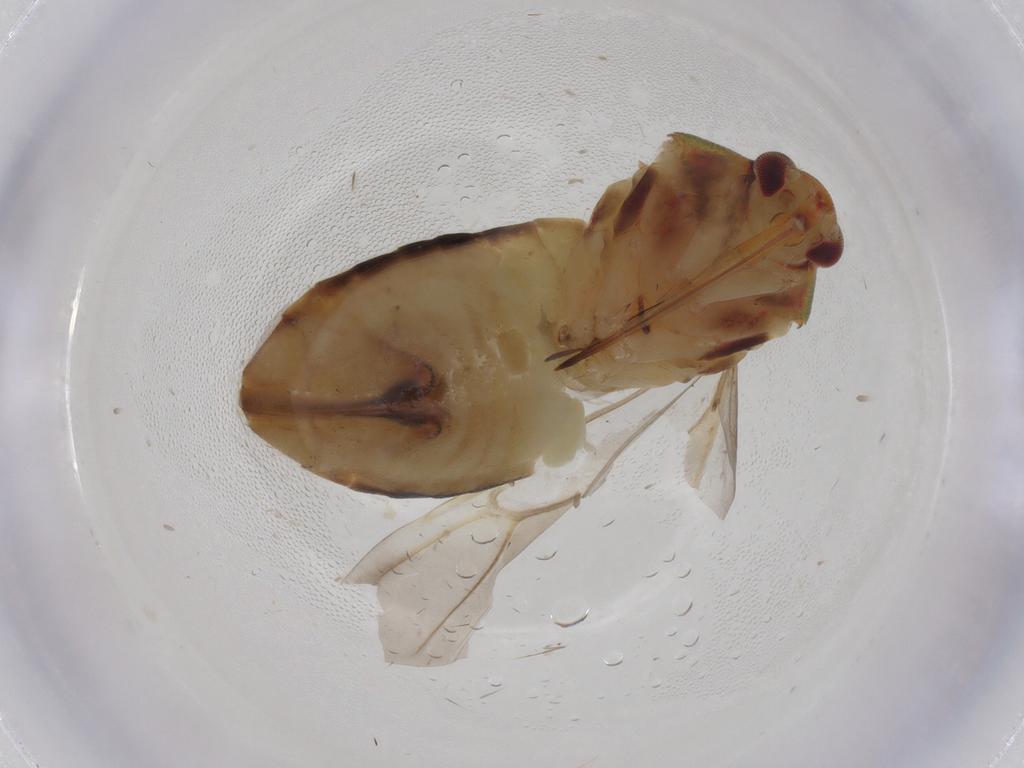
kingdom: Animalia
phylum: Arthropoda
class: Insecta
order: Hemiptera
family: Miridae
